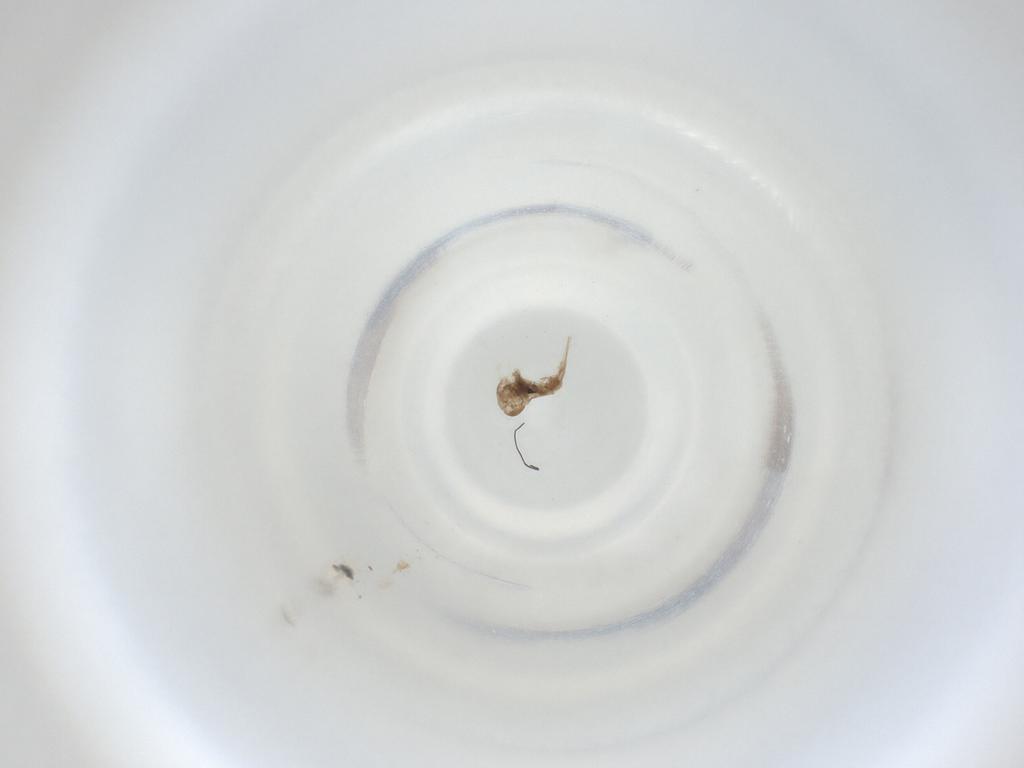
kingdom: Animalia
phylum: Arthropoda
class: Insecta
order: Diptera
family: Cecidomyiidae
